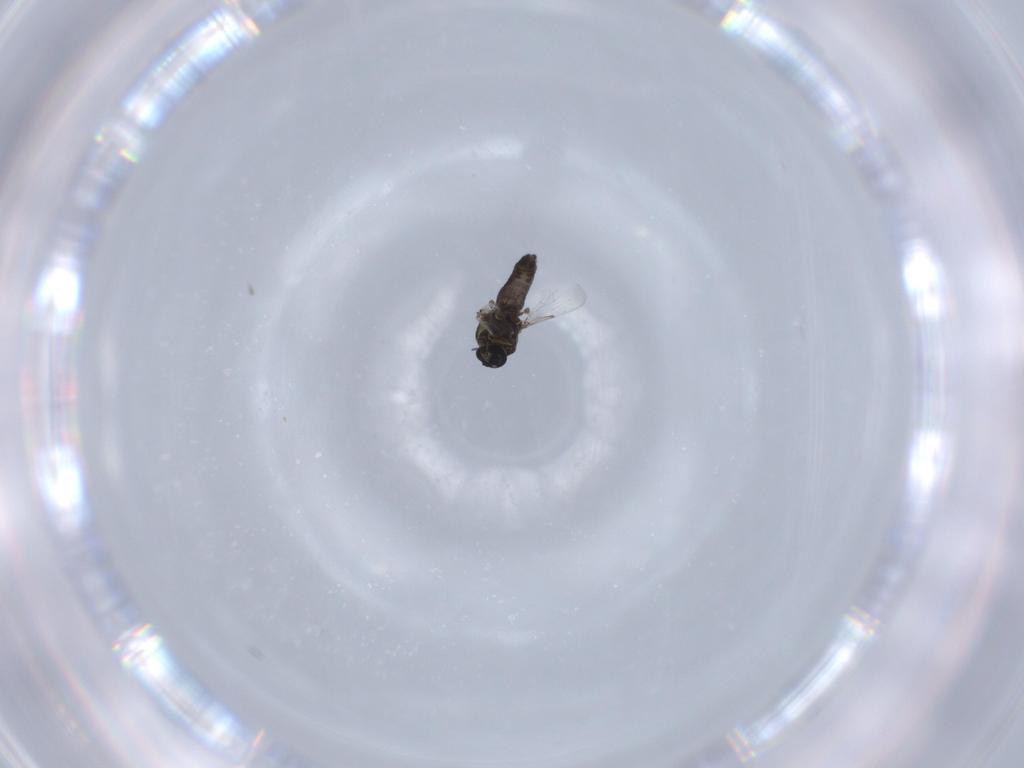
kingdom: Animalia
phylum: Arthropoda
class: Insecta
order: Diptera
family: Ceratopogonidae
